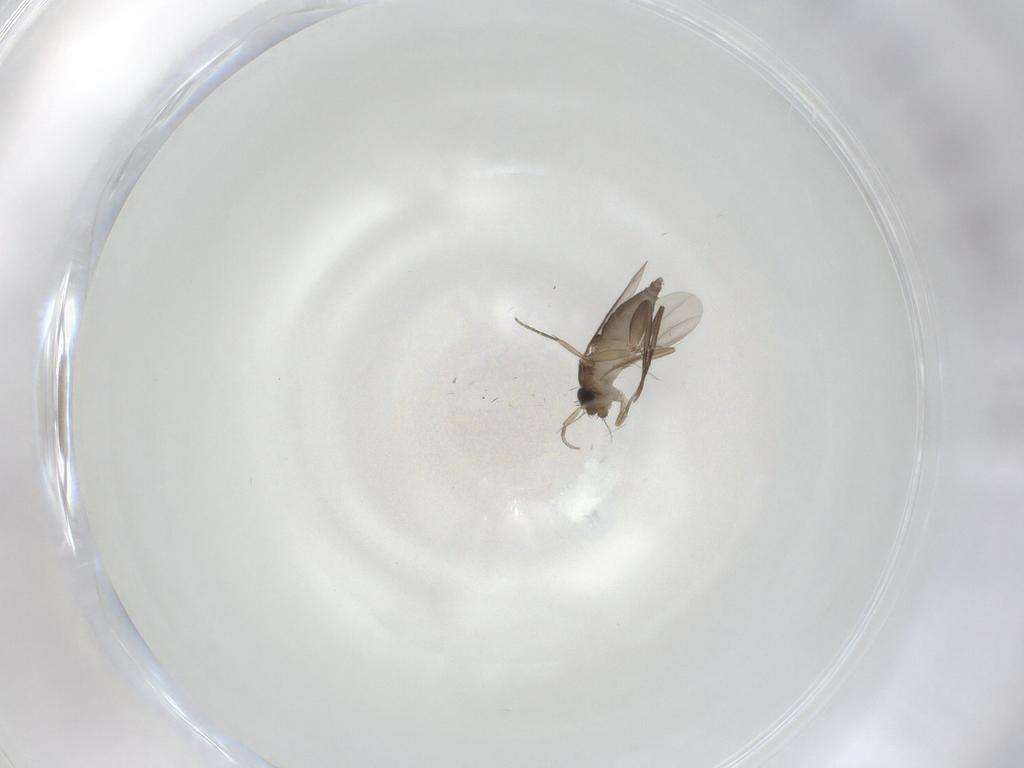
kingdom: Animalia
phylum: Arthropoda
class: Insecta
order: Diptera
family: Phoridae
